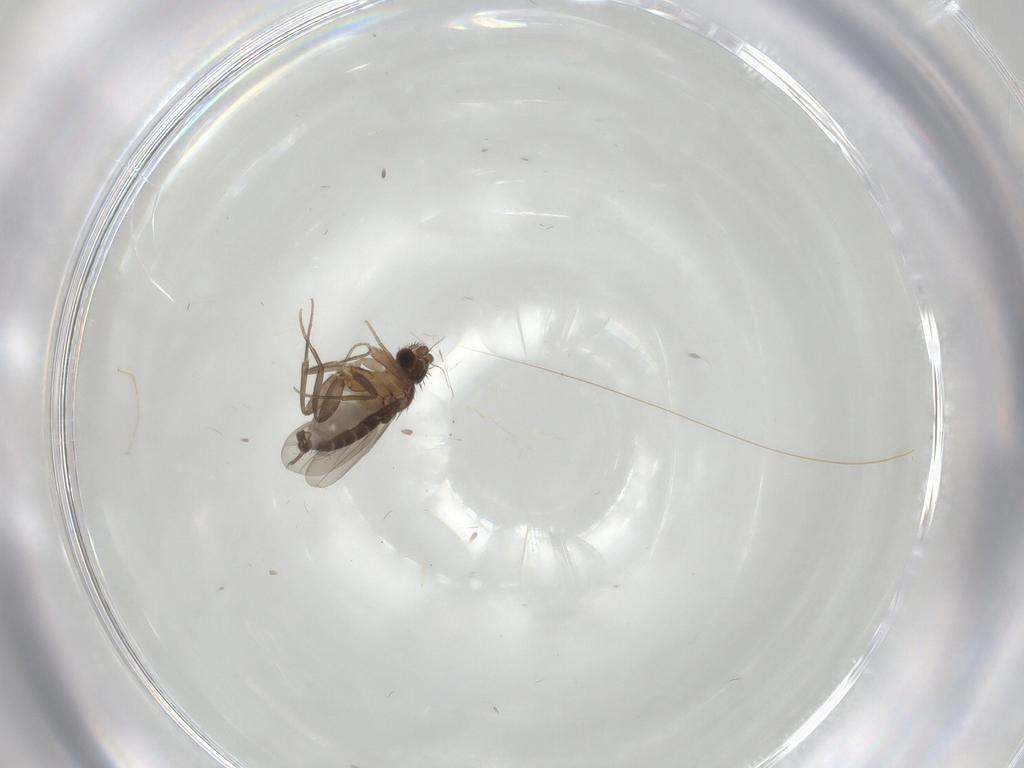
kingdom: Animalia
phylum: Arthropoda
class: Insecta
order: Diptera
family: Phoridae
